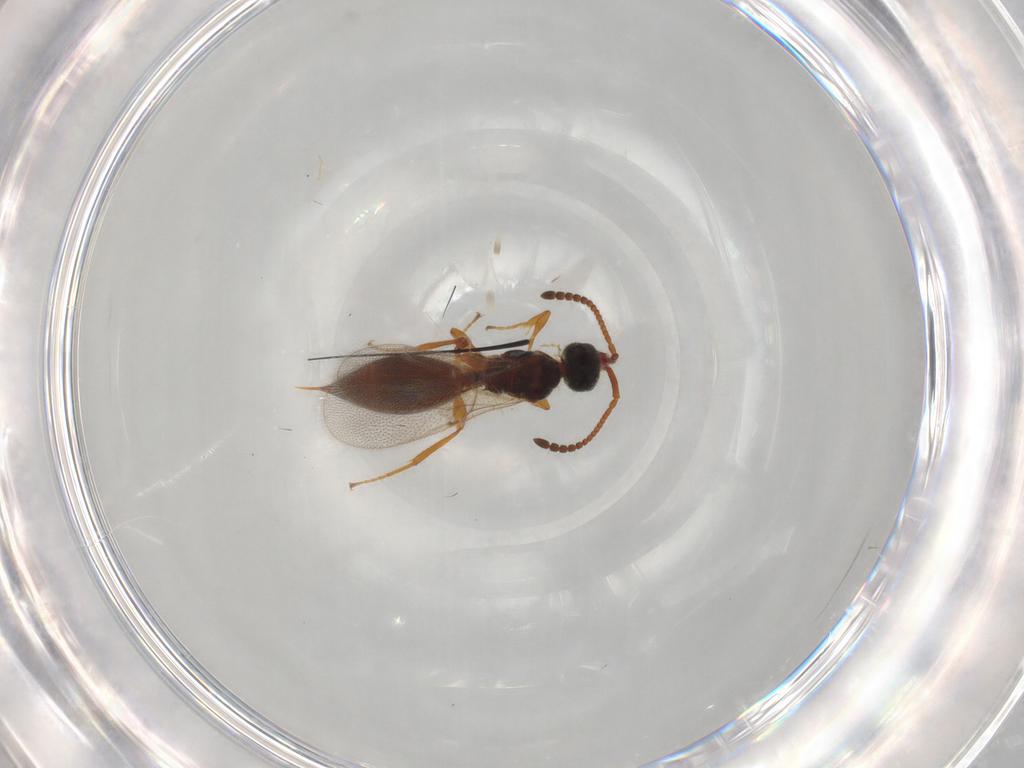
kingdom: Animalia
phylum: Arthropoda
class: Insecta
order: Hymenoptera
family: Diapriidae
